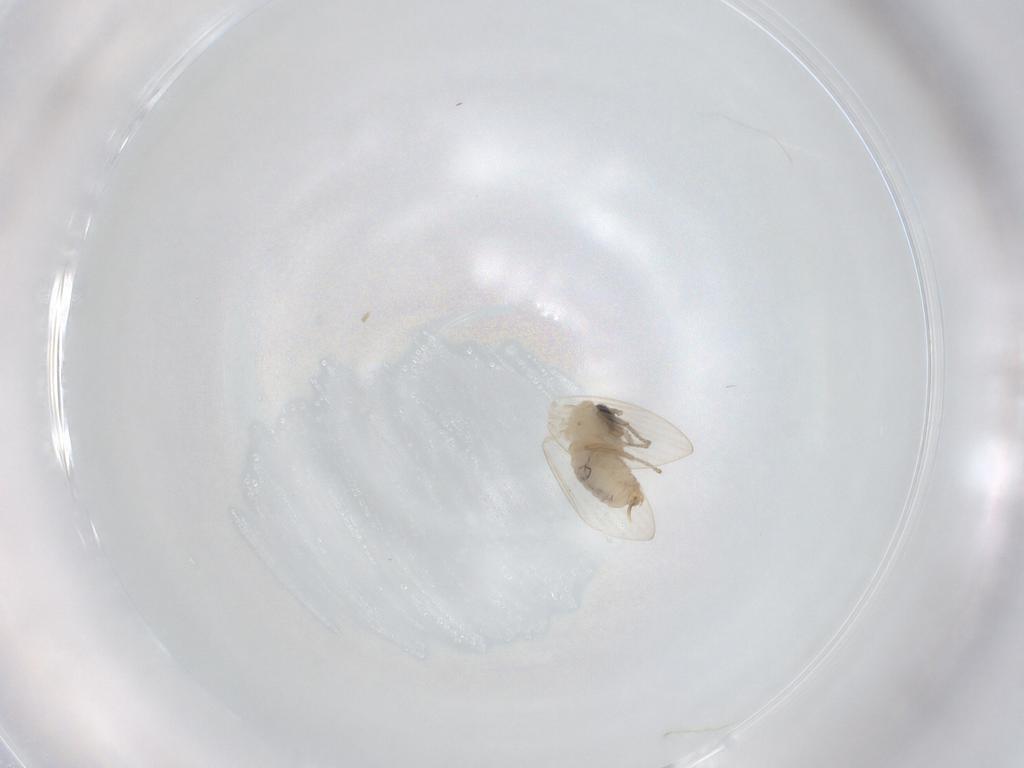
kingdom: Animalia
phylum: Arthropoda
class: Insecta
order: Diptera
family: Psychodidae
